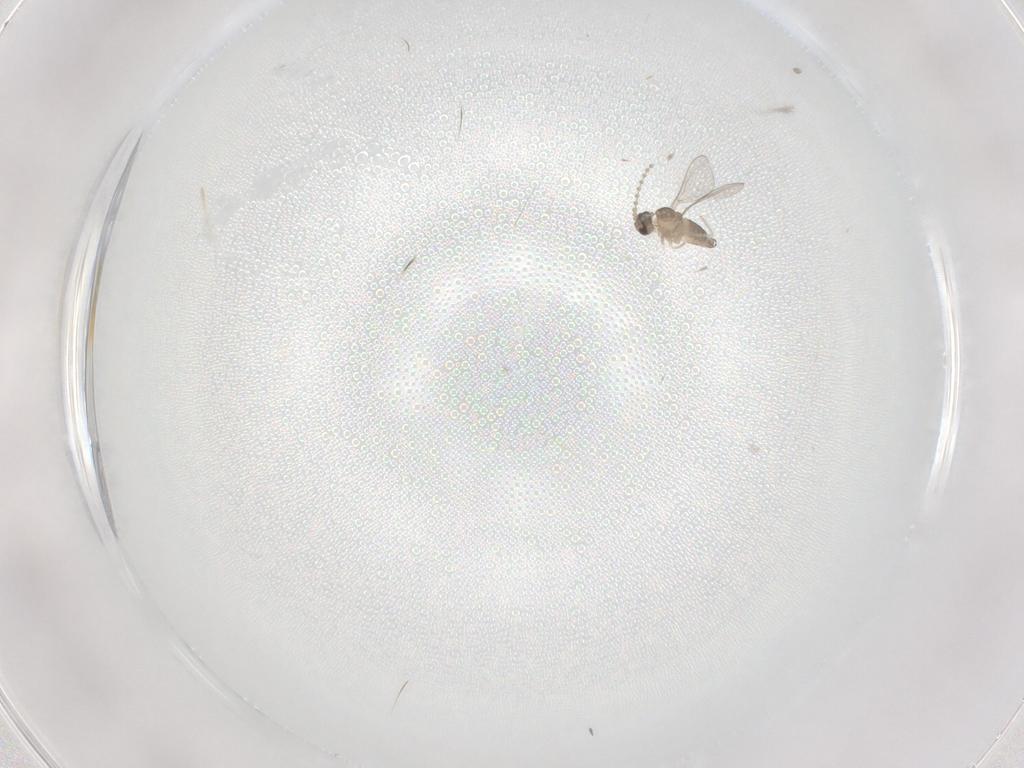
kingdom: Animalia
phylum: Arthropoda
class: Insecta
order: Diptera
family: Cecidomyiidae
